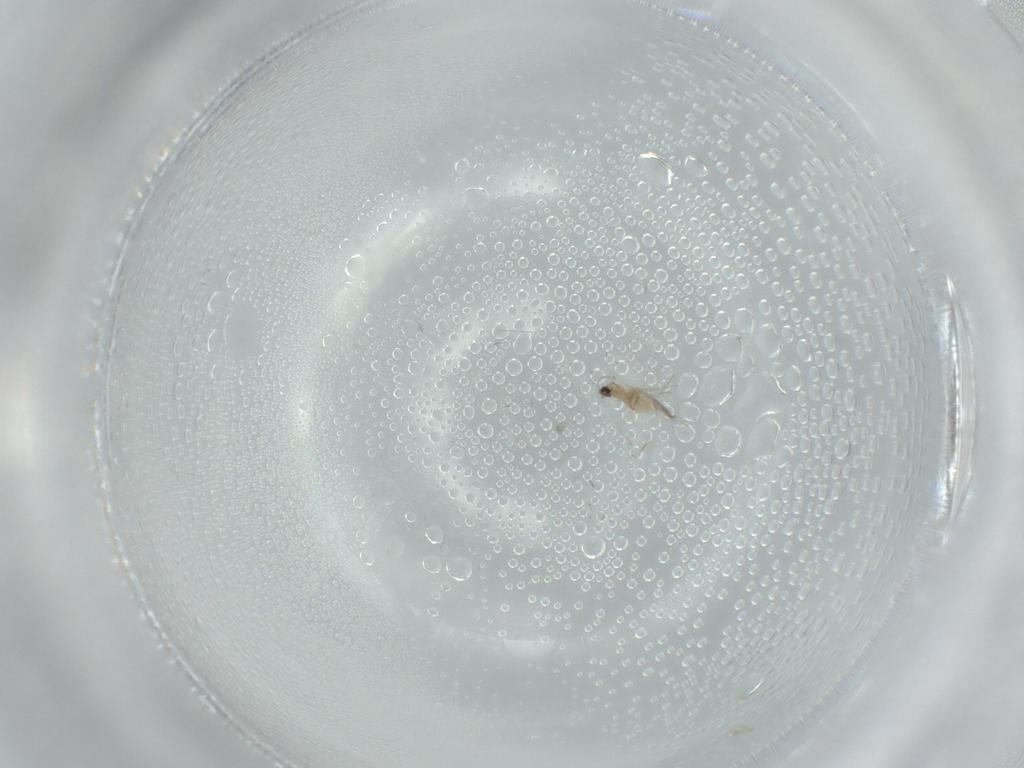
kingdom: Animalia
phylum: Arthropoda
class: Insecta
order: Diptera
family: Cecidomyiidae
